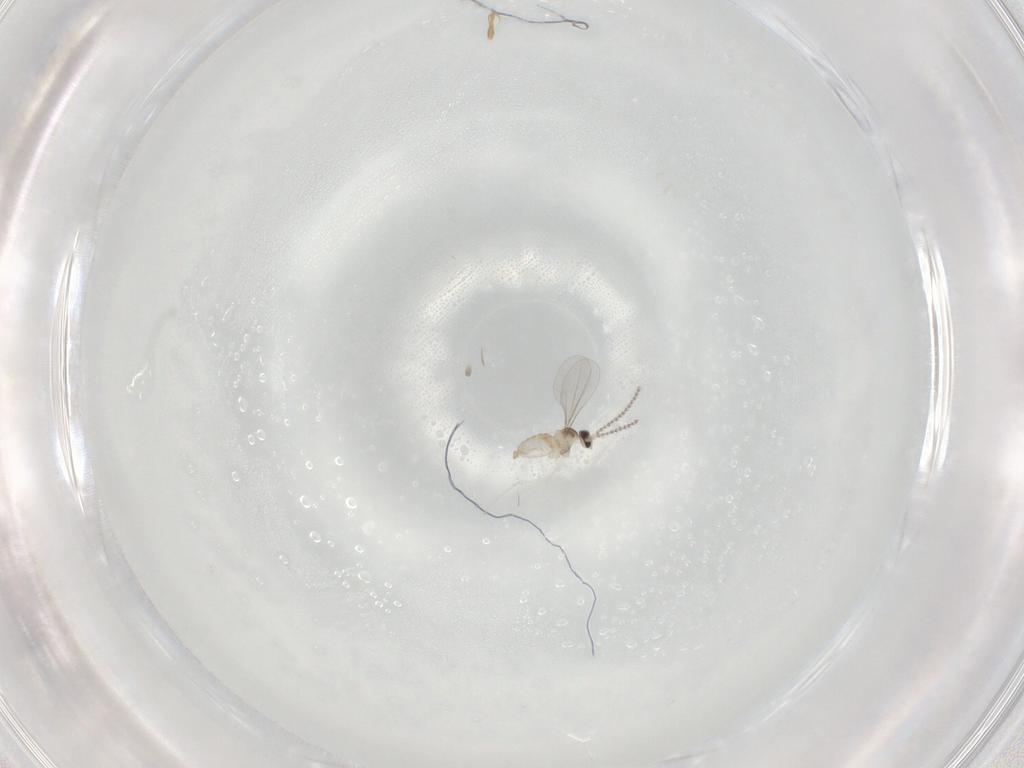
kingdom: Animalia
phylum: Arthropoda
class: Insecta
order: Diptera
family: Cecidomyiidae
